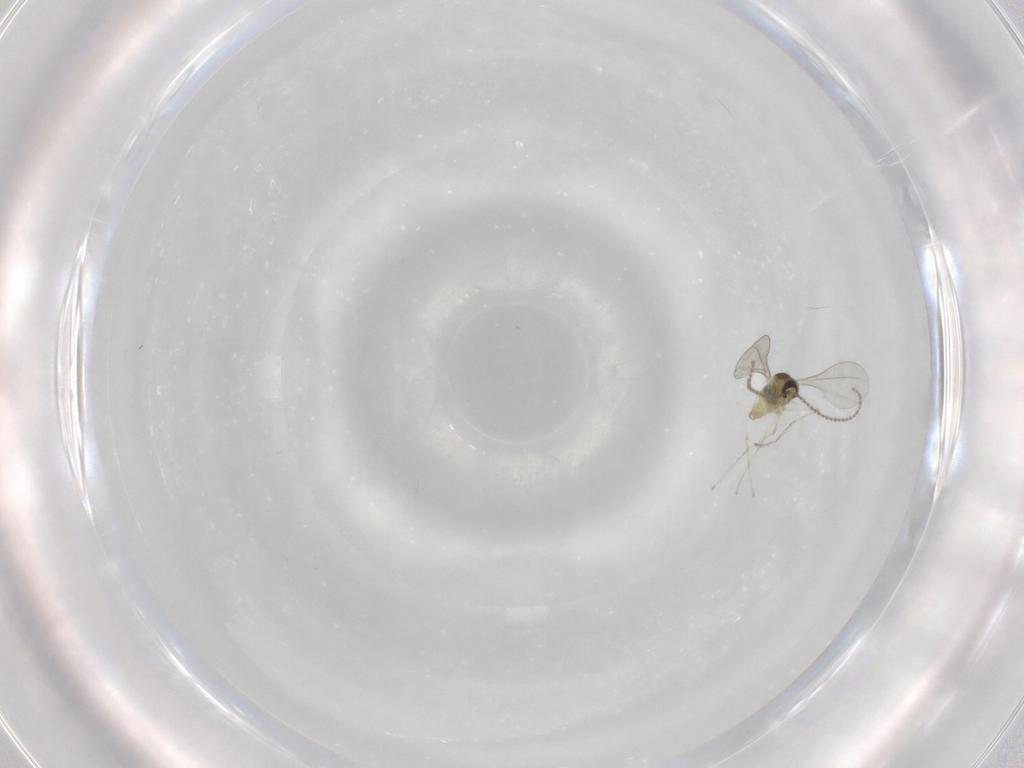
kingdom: Animalia
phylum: Arthropoda
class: Insecta
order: Diptera
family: Cecidomyiidae
